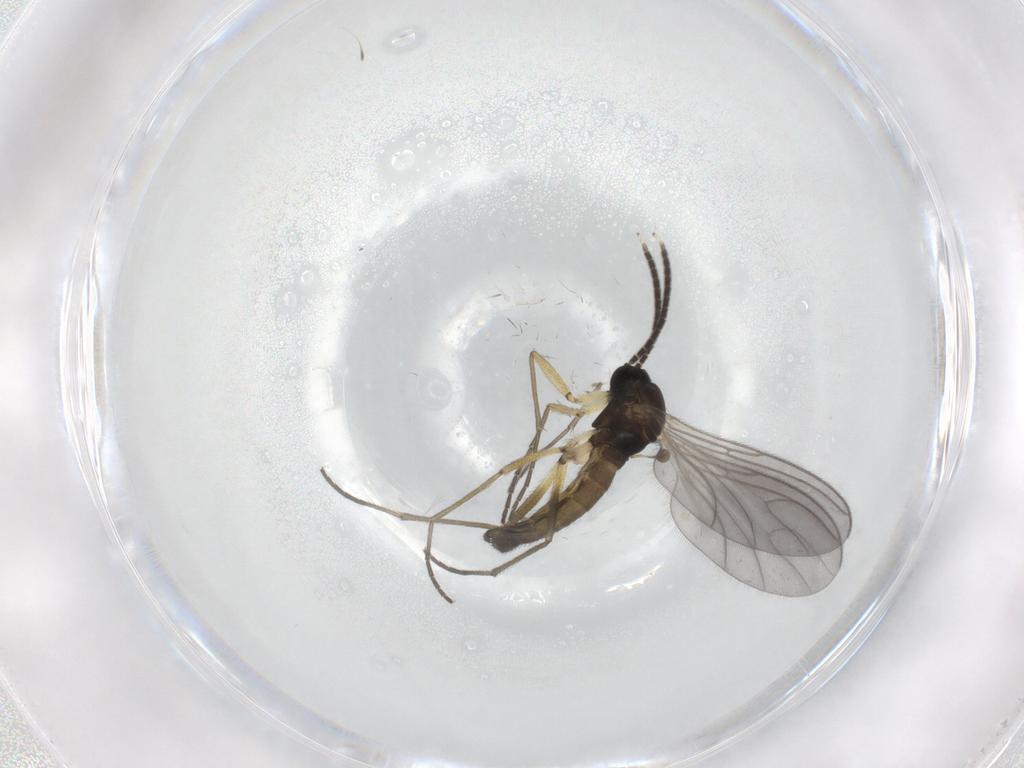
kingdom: Animalia
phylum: Arthropoda
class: Insecta
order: Diptera
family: Sciaridae
